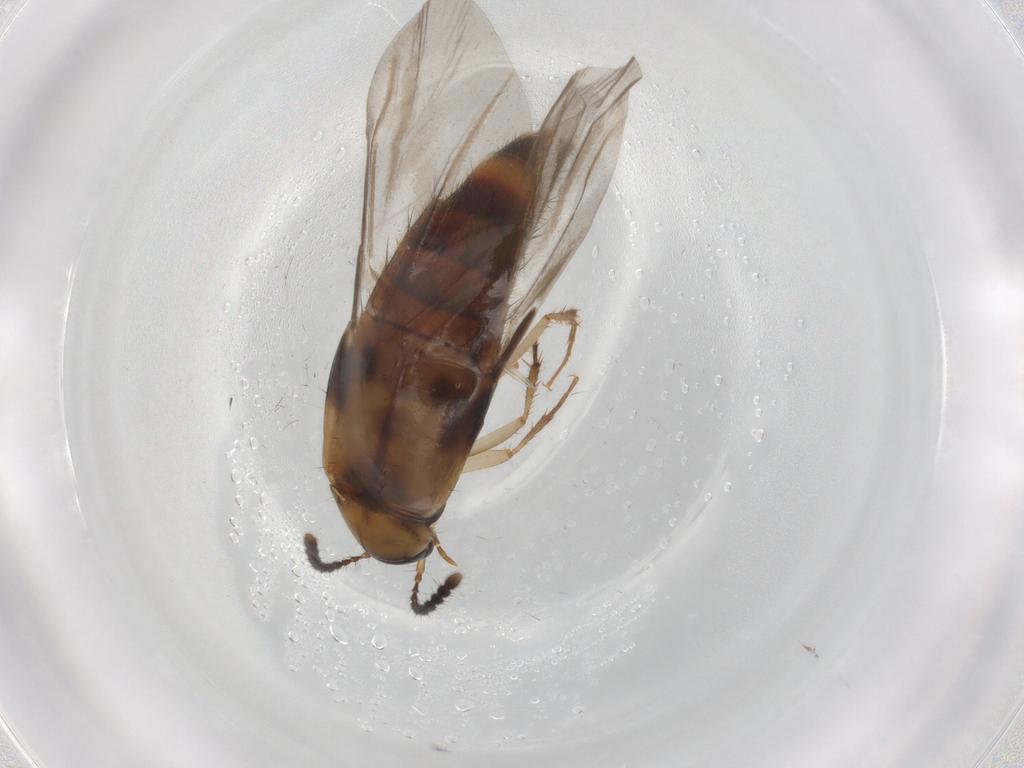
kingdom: Animalia
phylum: Arthropoda
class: Insecta
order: Coleoptera
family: Staphylinidae
